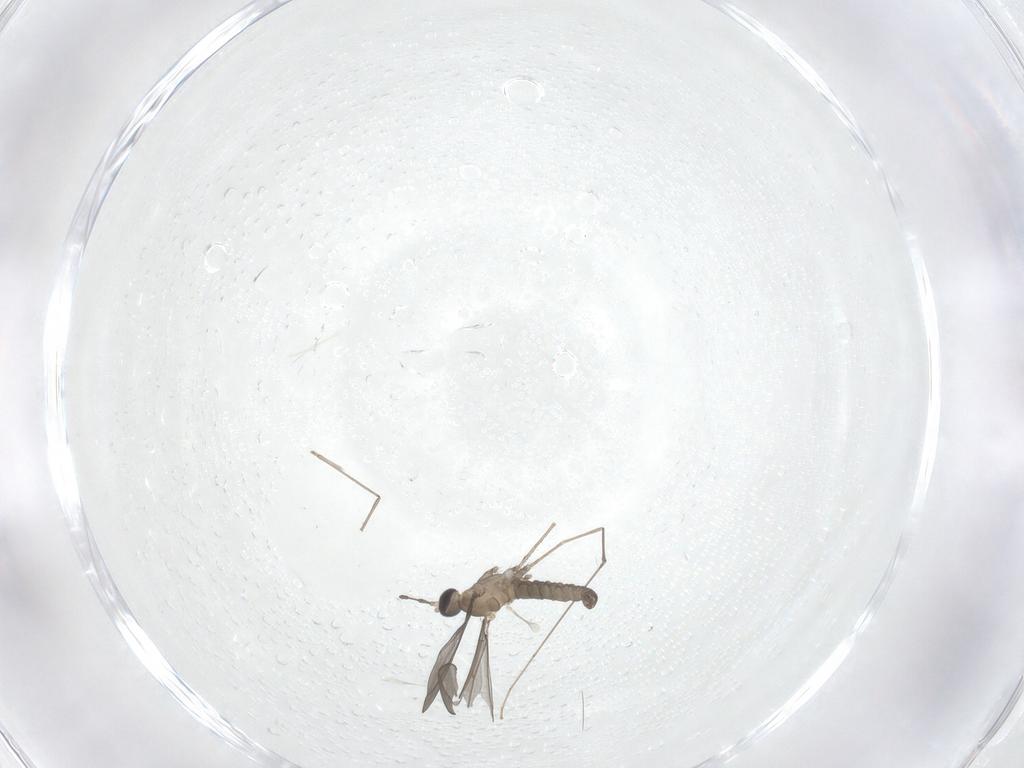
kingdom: Animalia
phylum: Arthropoda
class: Insecta
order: Diptera
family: Cecidomyiidae
